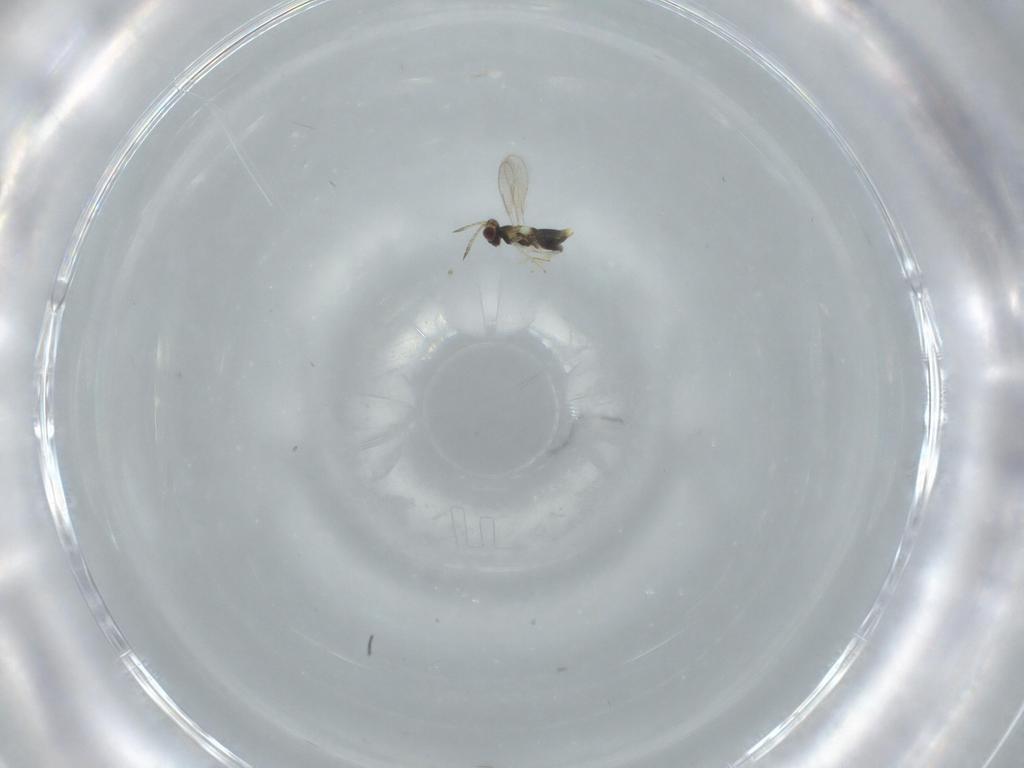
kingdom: Animalia
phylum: Arthropoda
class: Insecta
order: Hymenoptera
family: Aphelinidae
